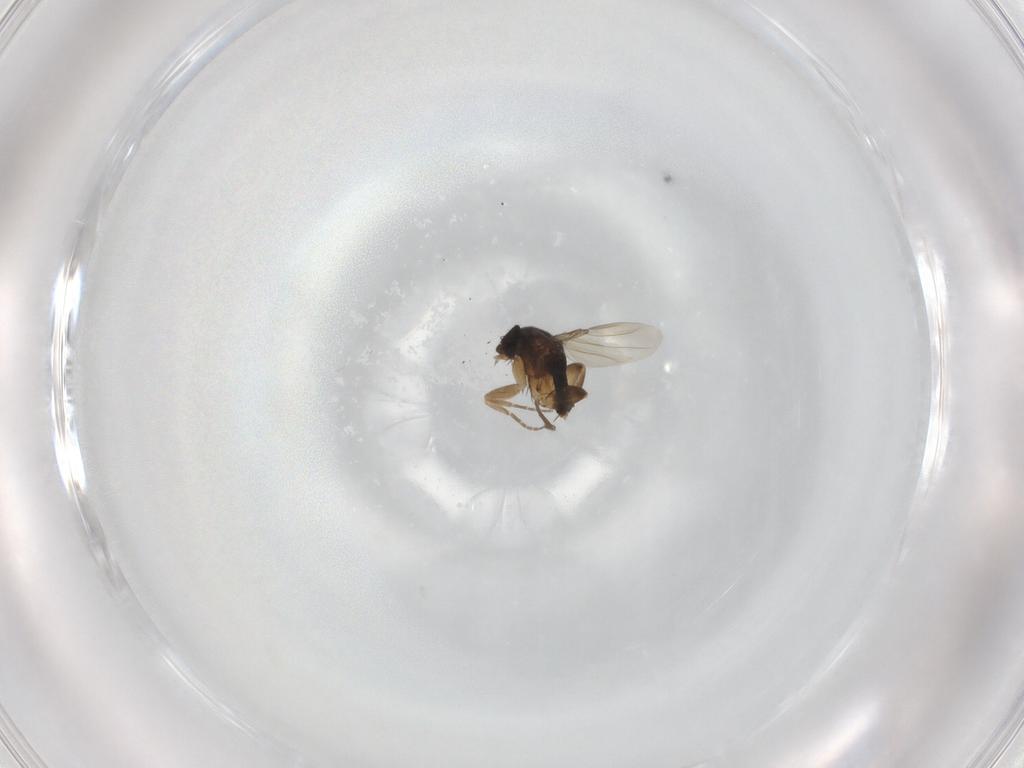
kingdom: Animalia
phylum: Arthropoda
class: Insecta
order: Diptera
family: Phoridae
